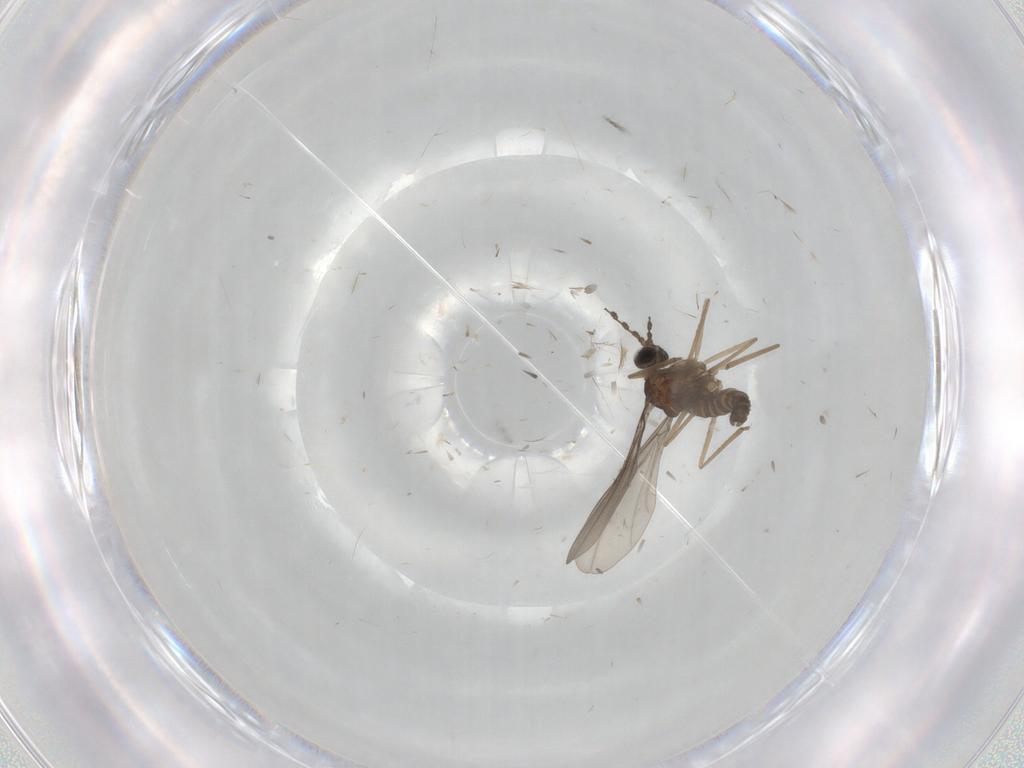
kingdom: Animalia
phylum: Arthropoda
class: Insecta
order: Diptera
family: Cecidomyiidae
